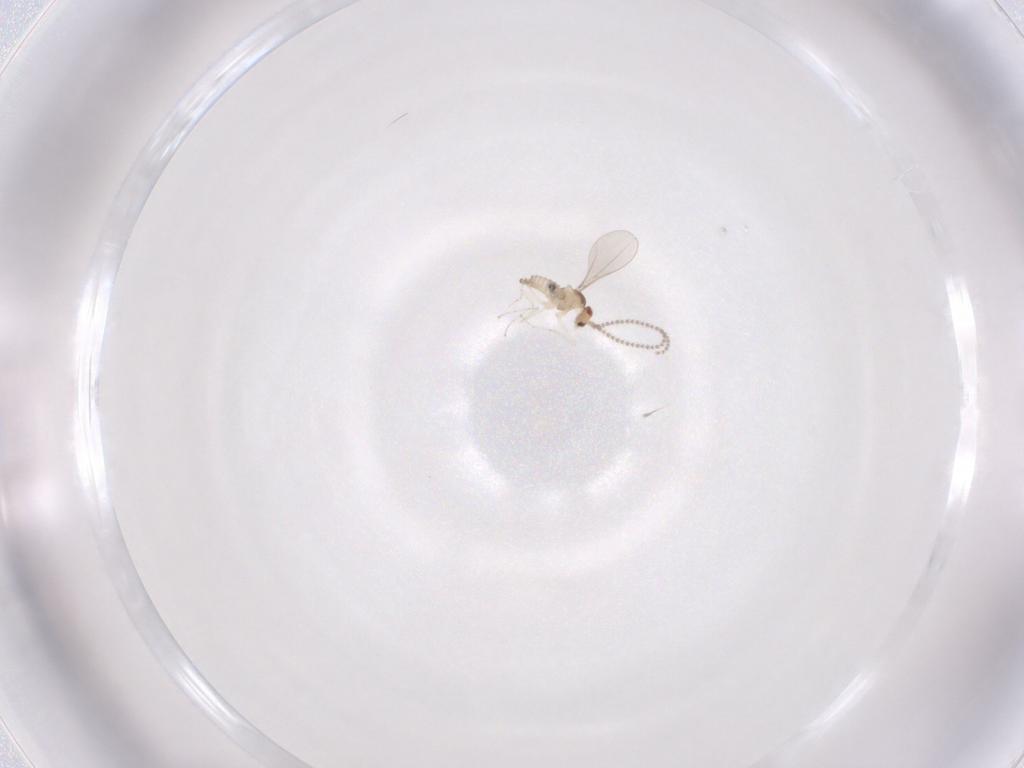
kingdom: Animalia
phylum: Arthropoda
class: Insecta
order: Diptera
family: Cecidomyiidae
